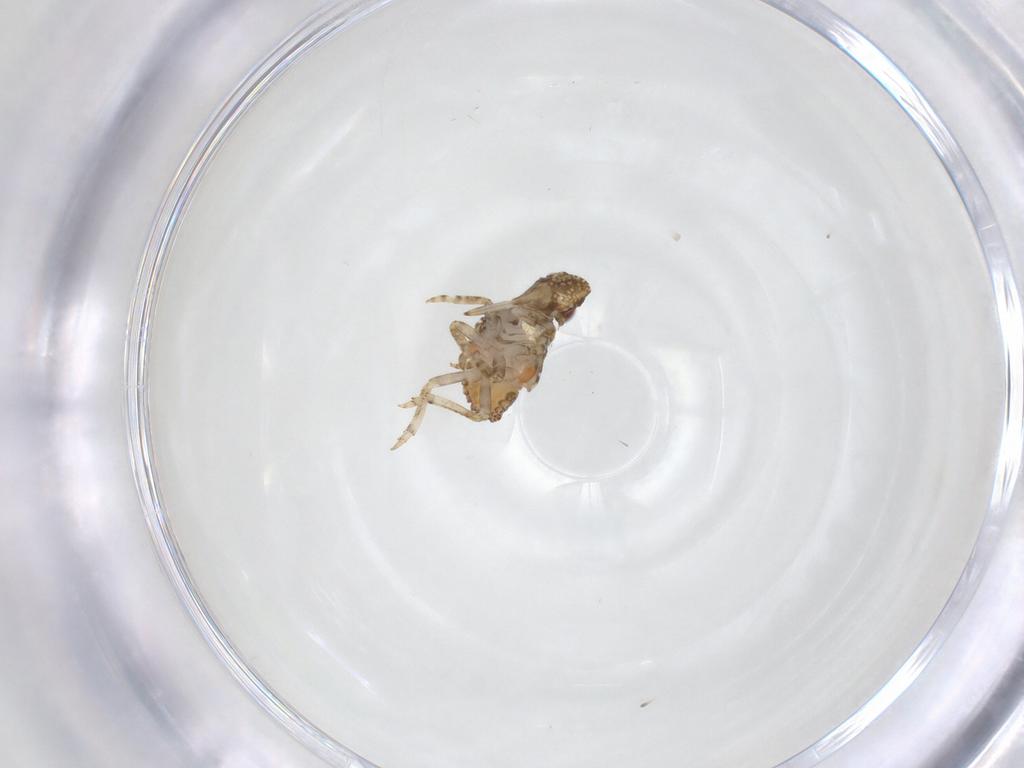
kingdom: Animalia
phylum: Arthropoda
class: Insecta
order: Hemiptera
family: Nogodinidae
